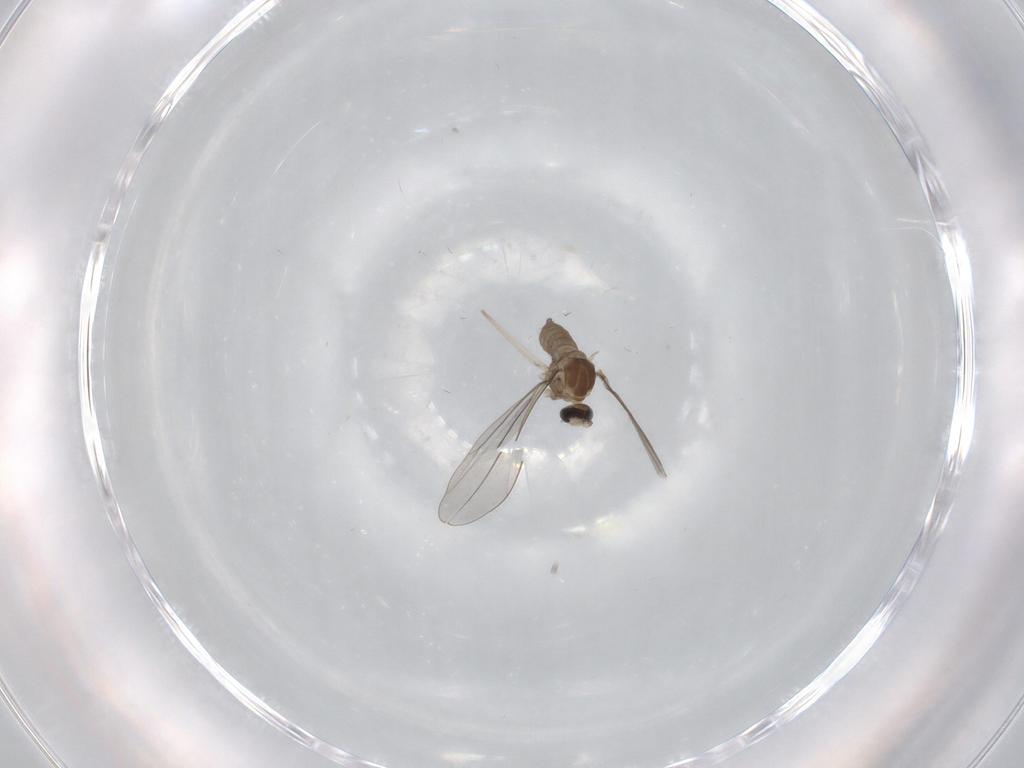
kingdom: Animalia
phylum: Arthropoda
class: Insecta
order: Diptera
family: Cecidomyiidae
